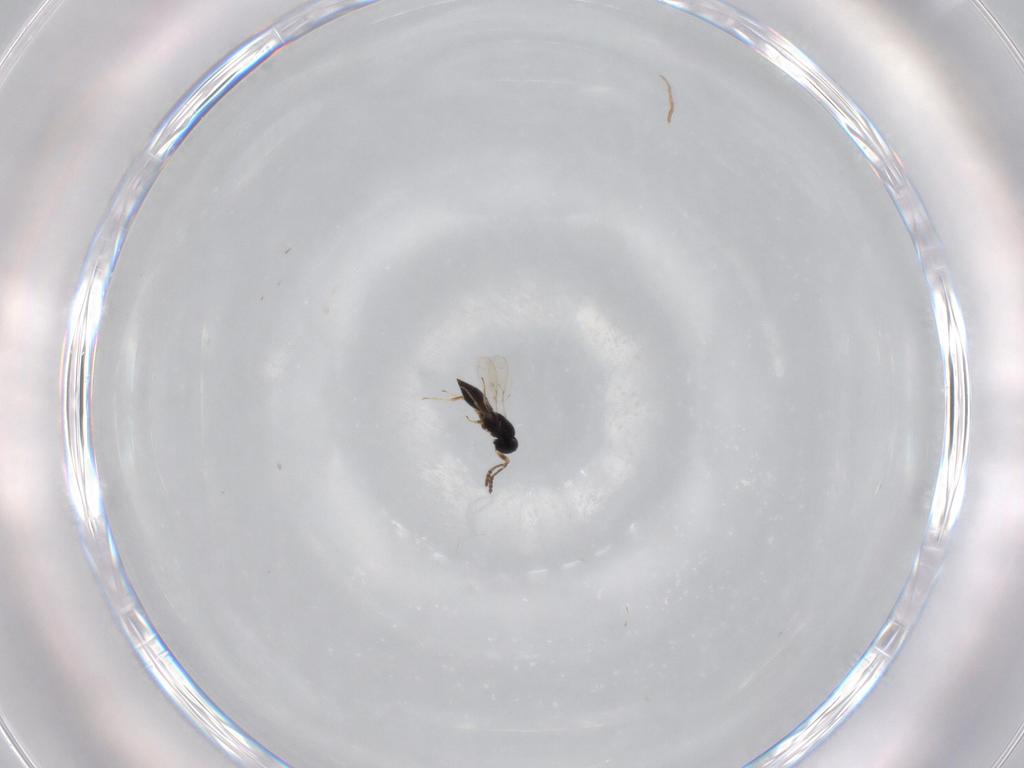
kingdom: Animalia
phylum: Arthropoda
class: Insecta
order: Hymenoptera
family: Scelionidae
